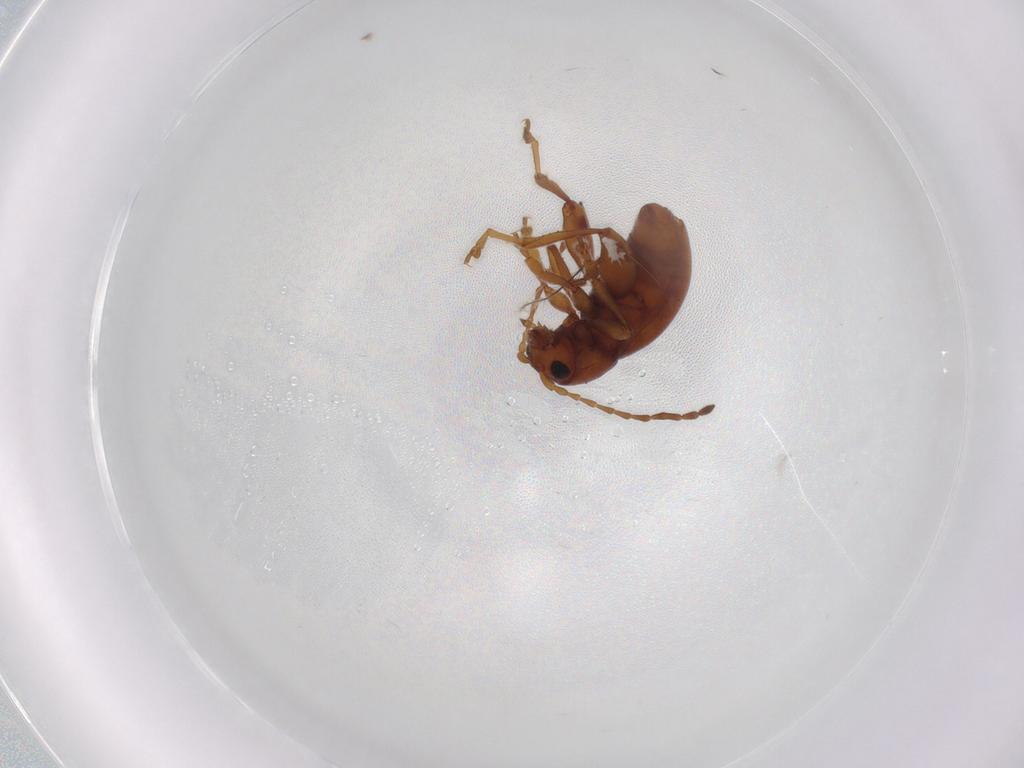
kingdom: Animalia
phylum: Arthropoda
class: Insecta
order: Coleoptera
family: Chrysomelidae
